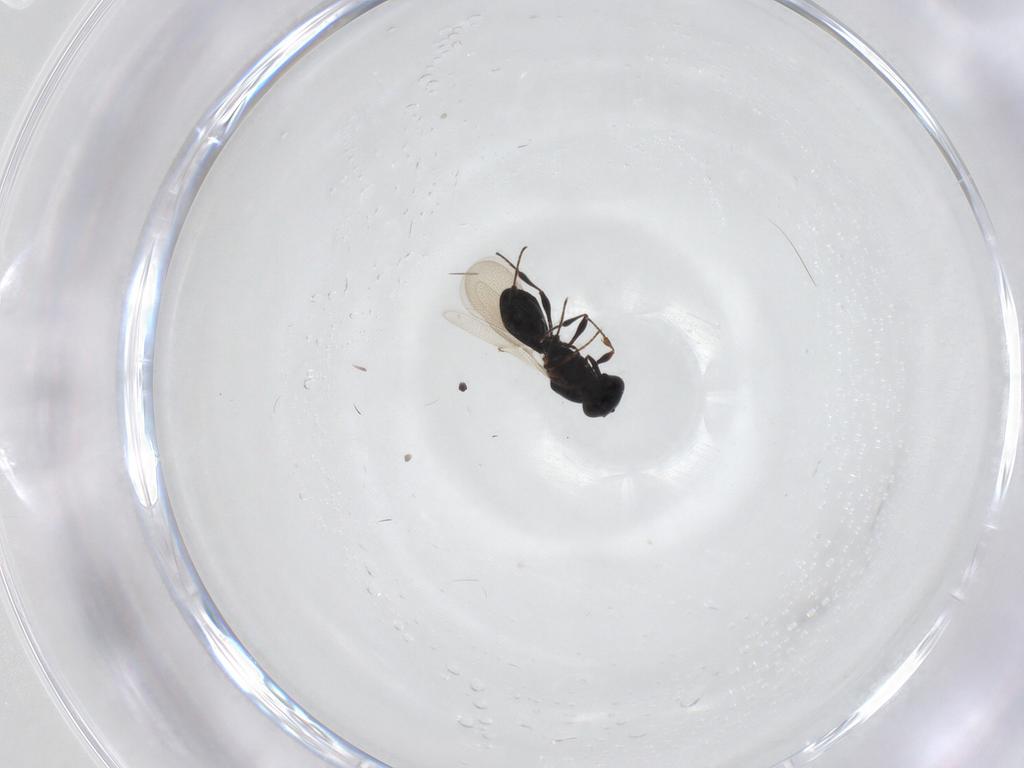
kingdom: Animalia
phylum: Arthropoda
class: Insecta
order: Hymenoptera
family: Platygastridae
